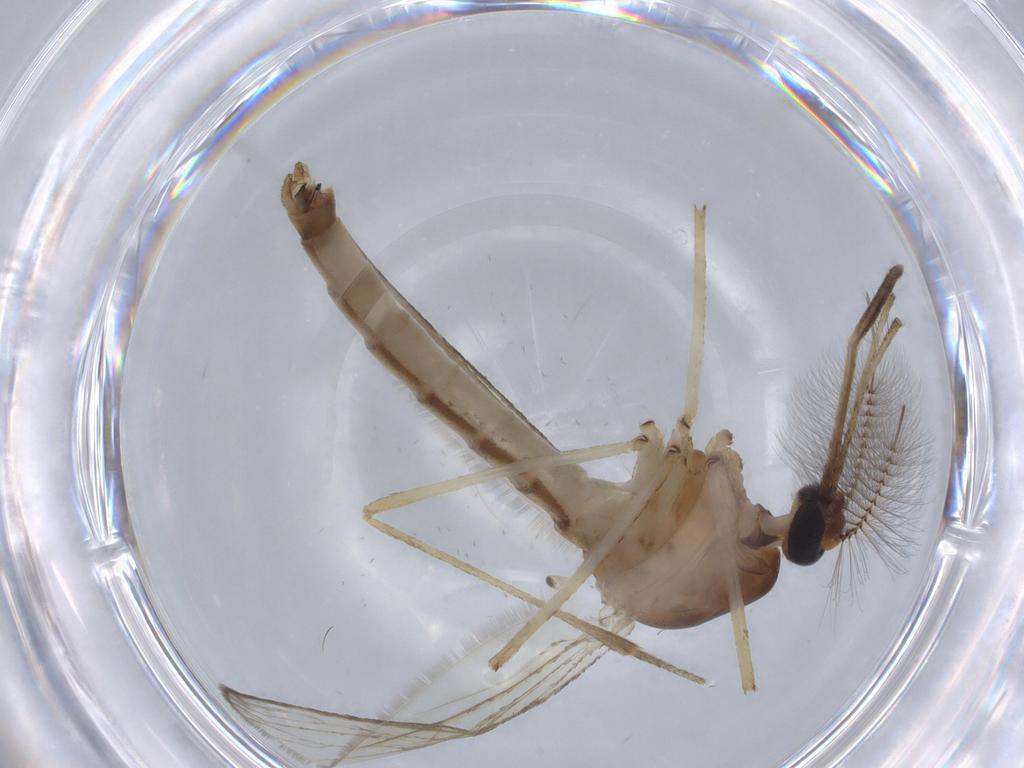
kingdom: Animalia
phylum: Arthropoda
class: Insecta
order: Diptera
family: Culicidae
